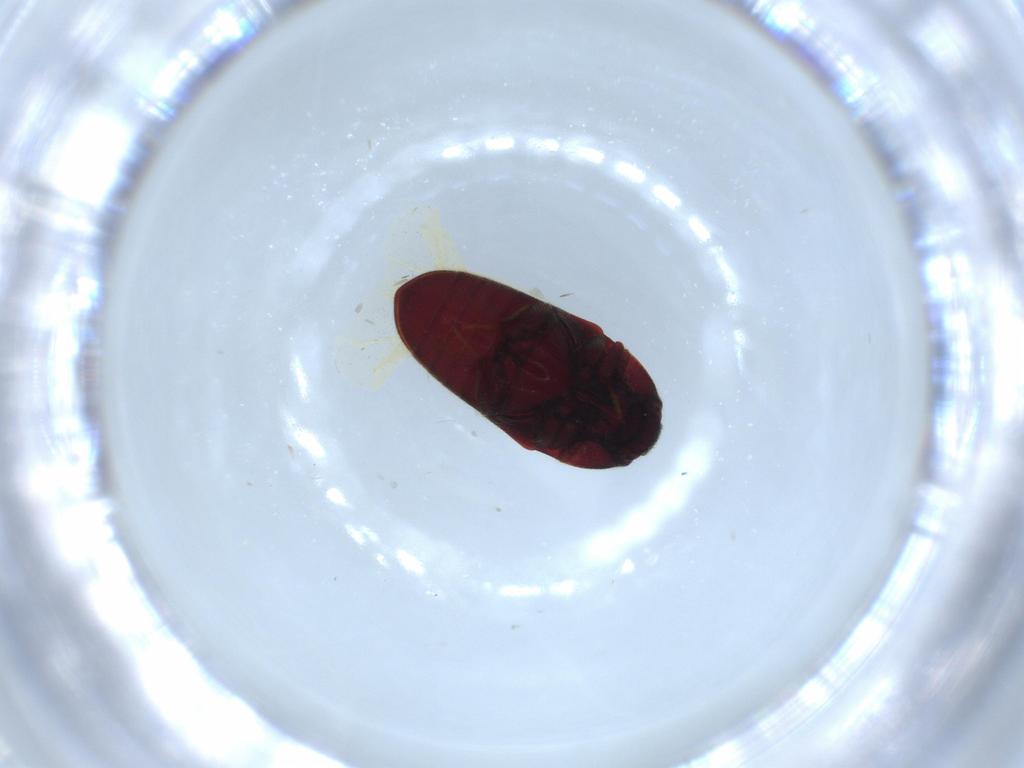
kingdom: Animalia
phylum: Arthropoda
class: Insecta
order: Coleoptera
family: Throscidae
